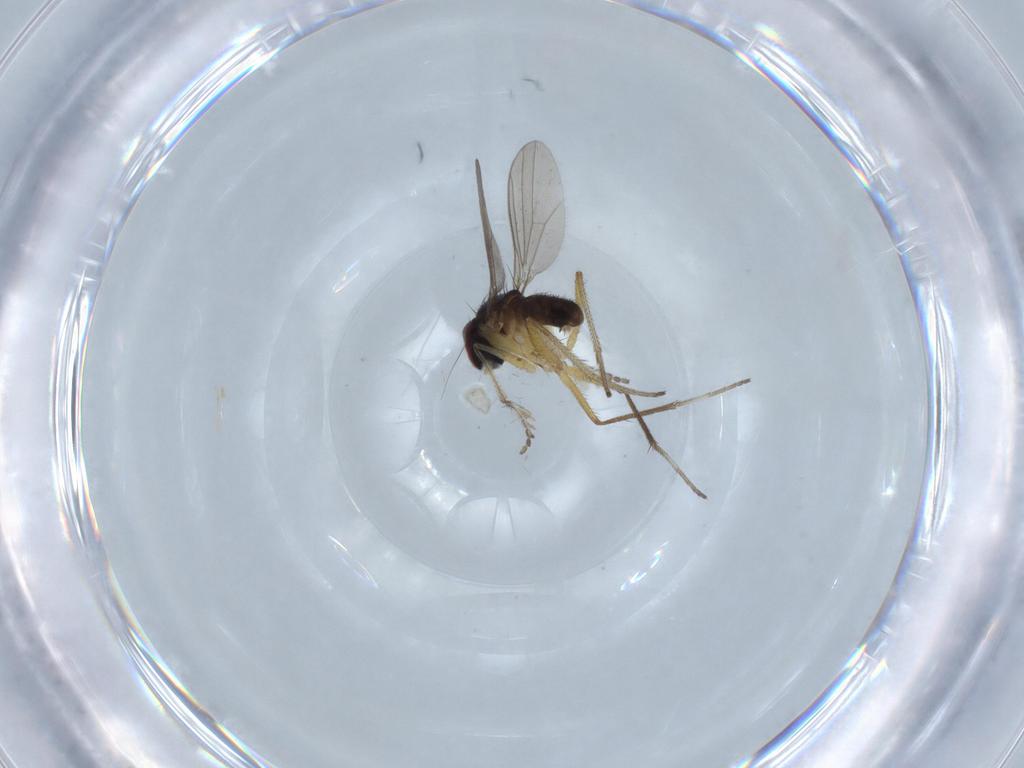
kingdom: Animalia
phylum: Arthropoda
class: Insecta
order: Diptera
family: Dolichopodidae
